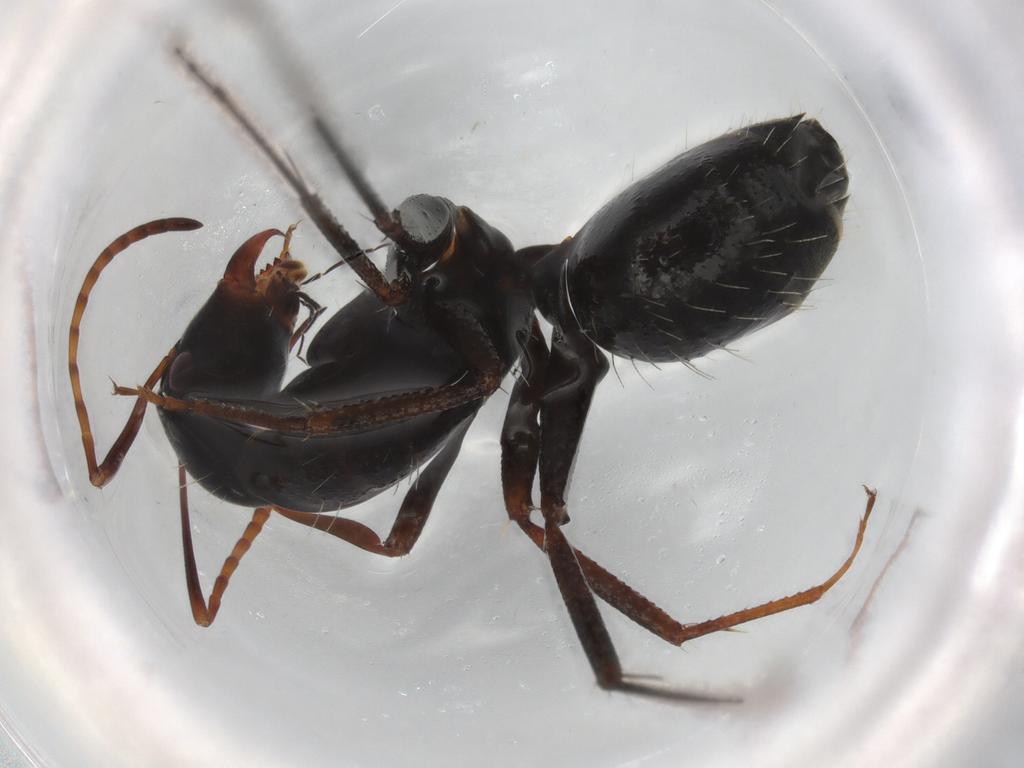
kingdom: Animalia
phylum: Arthropoda
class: Insecta
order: Hymenoptera
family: Formicidae
